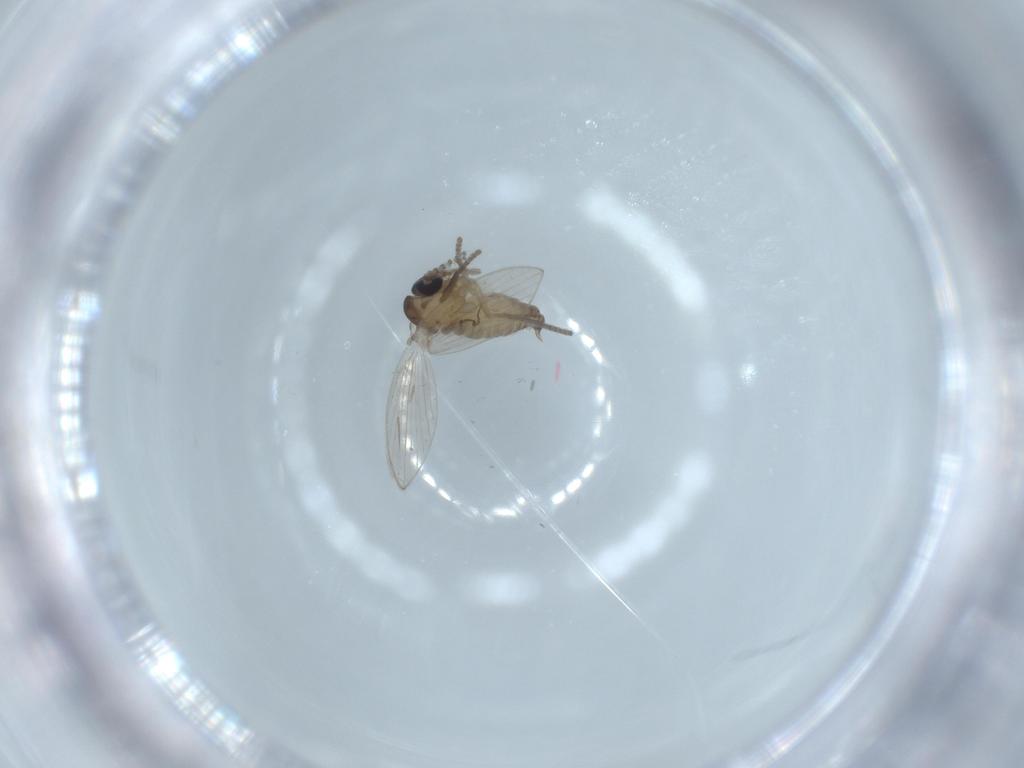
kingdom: Animalia
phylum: Arthropoda
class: Insecta
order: Diptera
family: Psychodidae
